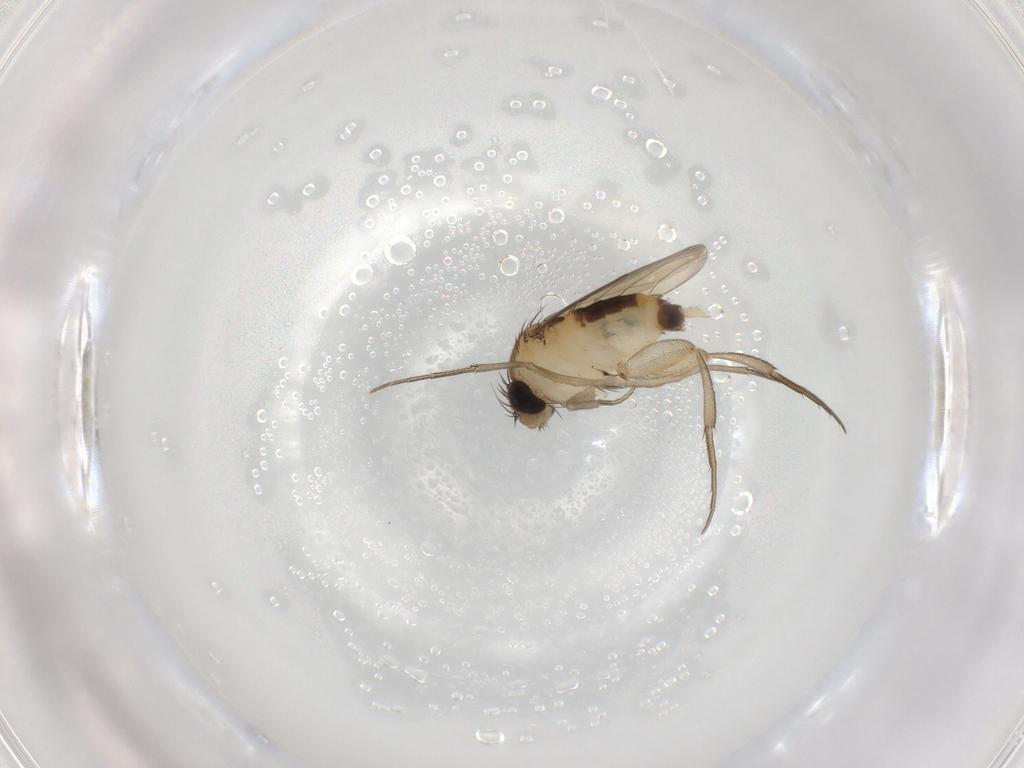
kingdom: Animalia
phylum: Arthropoda
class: Insecta
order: Diptera
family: Phoridae
